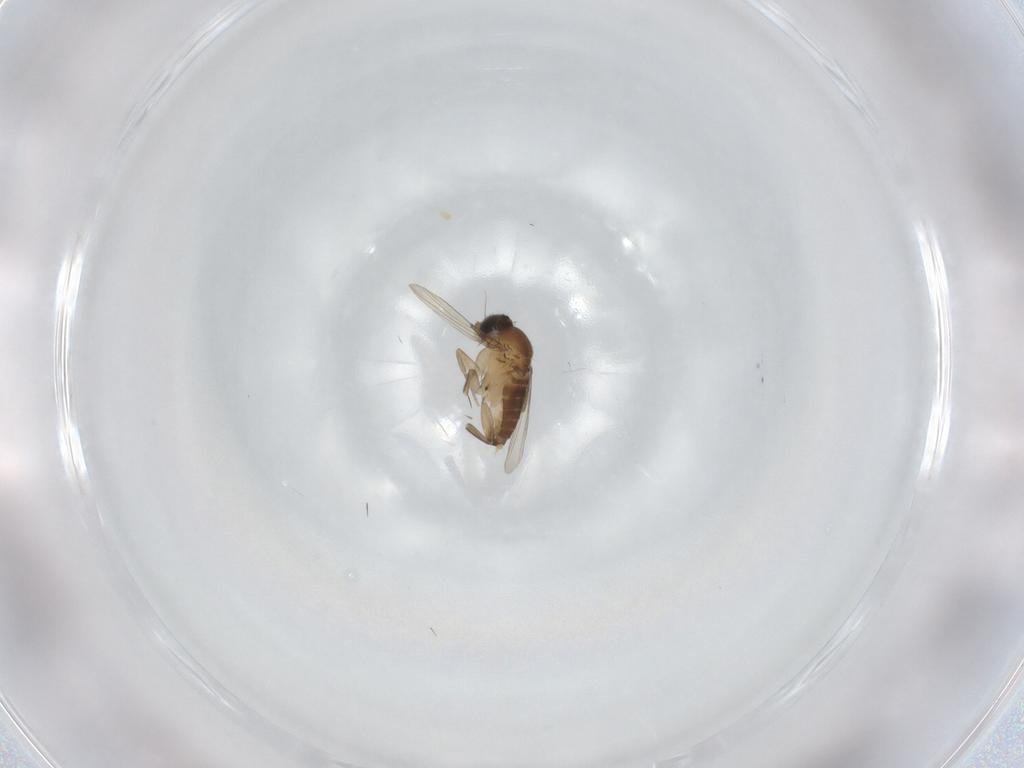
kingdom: Animalia
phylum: Arthropoda
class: Insecta
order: Diptera
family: Phoridae
